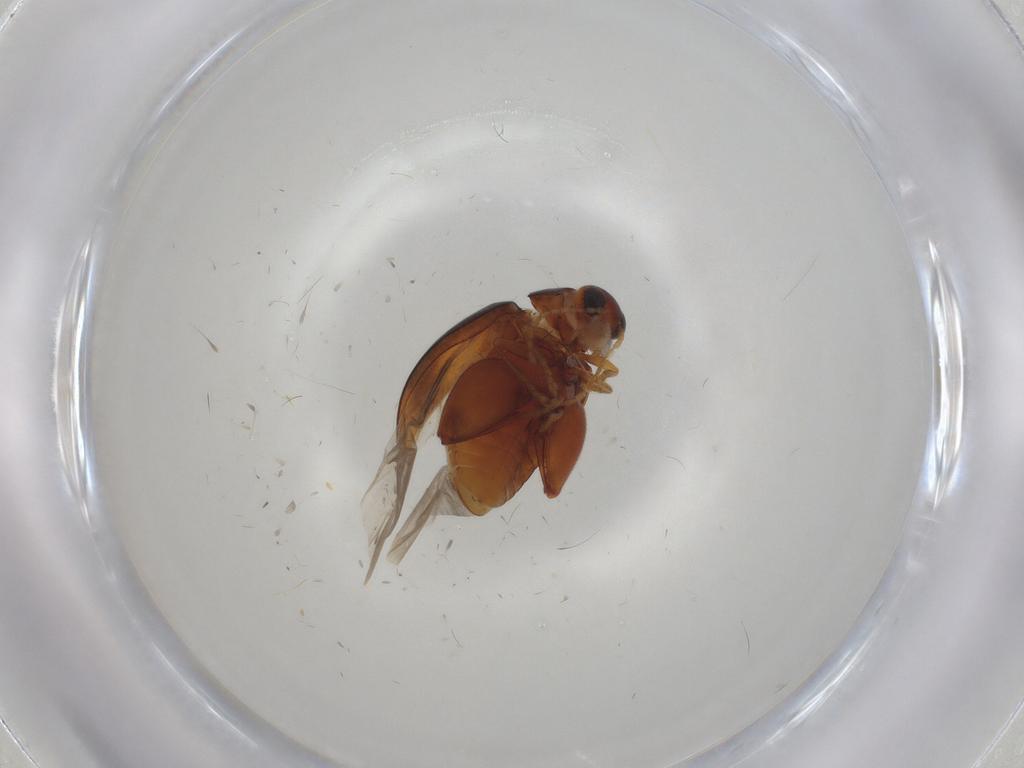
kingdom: Animalia
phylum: Arthropoda
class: Insecta
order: Coleoptera
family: Chrysomelidae
